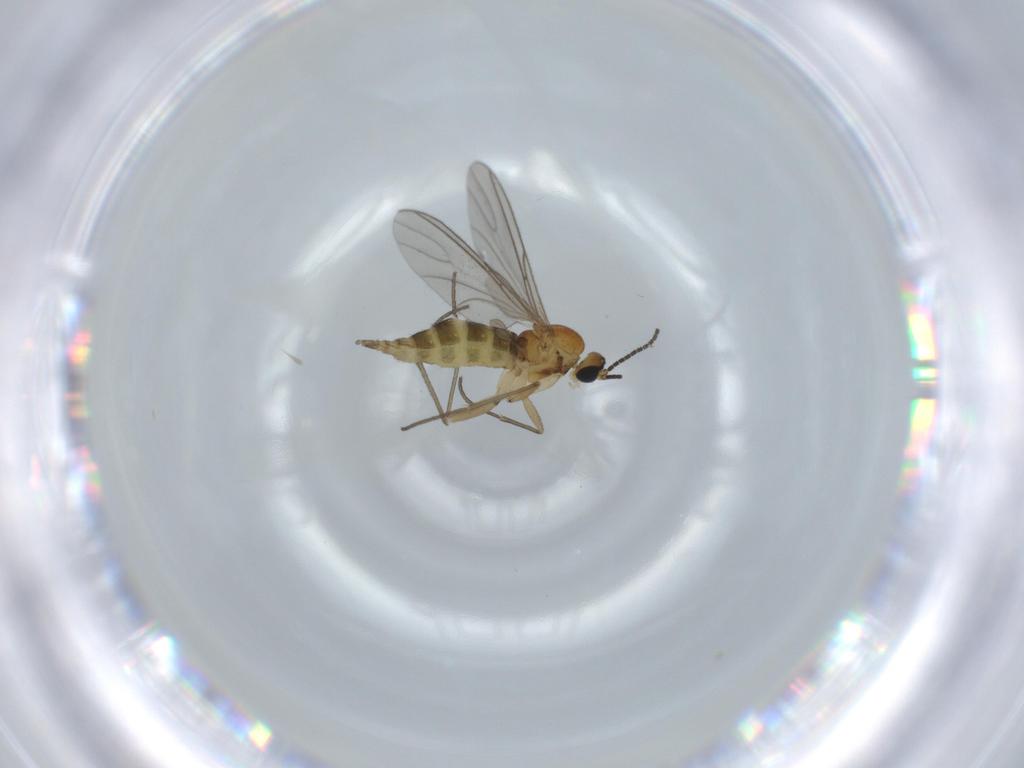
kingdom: Animalia
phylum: Arthropoda
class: Insecta
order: Diptera
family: Sciaridae
